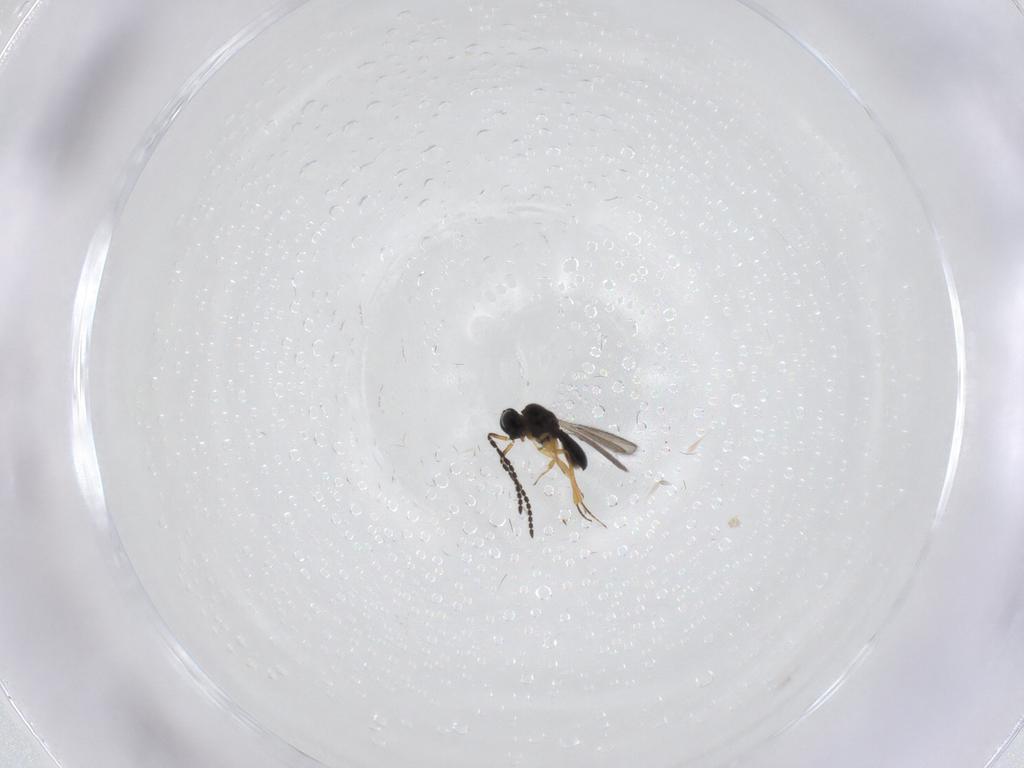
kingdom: Animalia
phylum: Arthropoda
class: Insecta
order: Hymenoptera
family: Scelionidae
